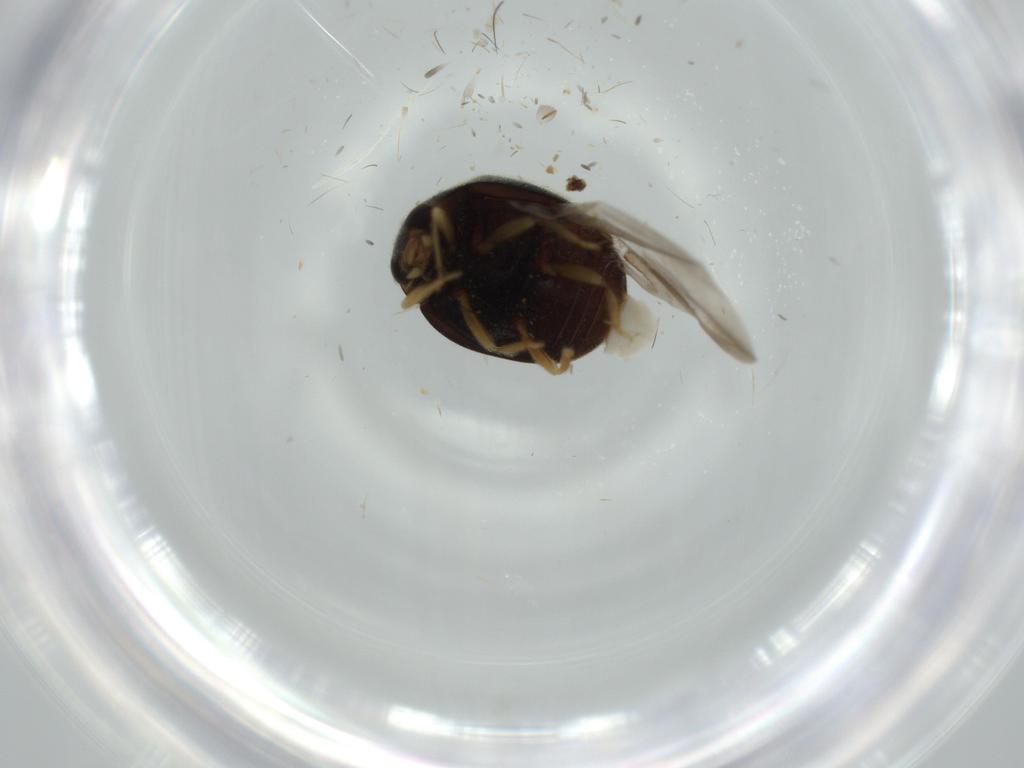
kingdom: Animalia
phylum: Arthropoda
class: Insecta
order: Coleoptera
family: Coccinellidae
